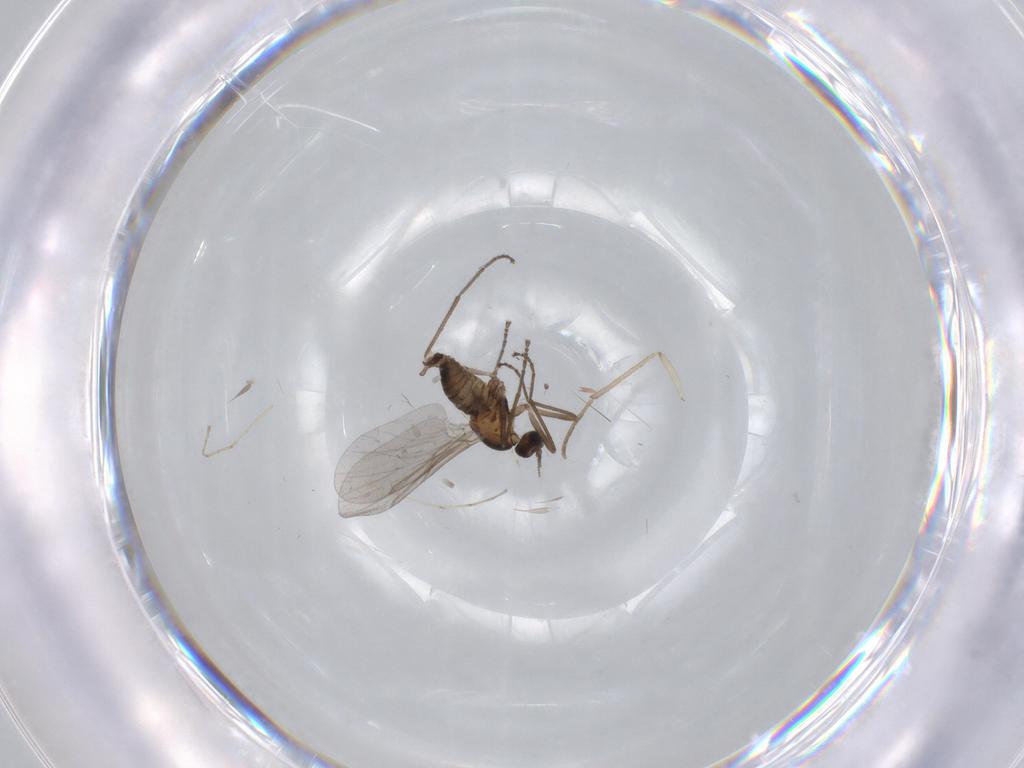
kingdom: Animalia
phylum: Arthropoda
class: Insecta
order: Diptera
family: Cecidomyiidae
